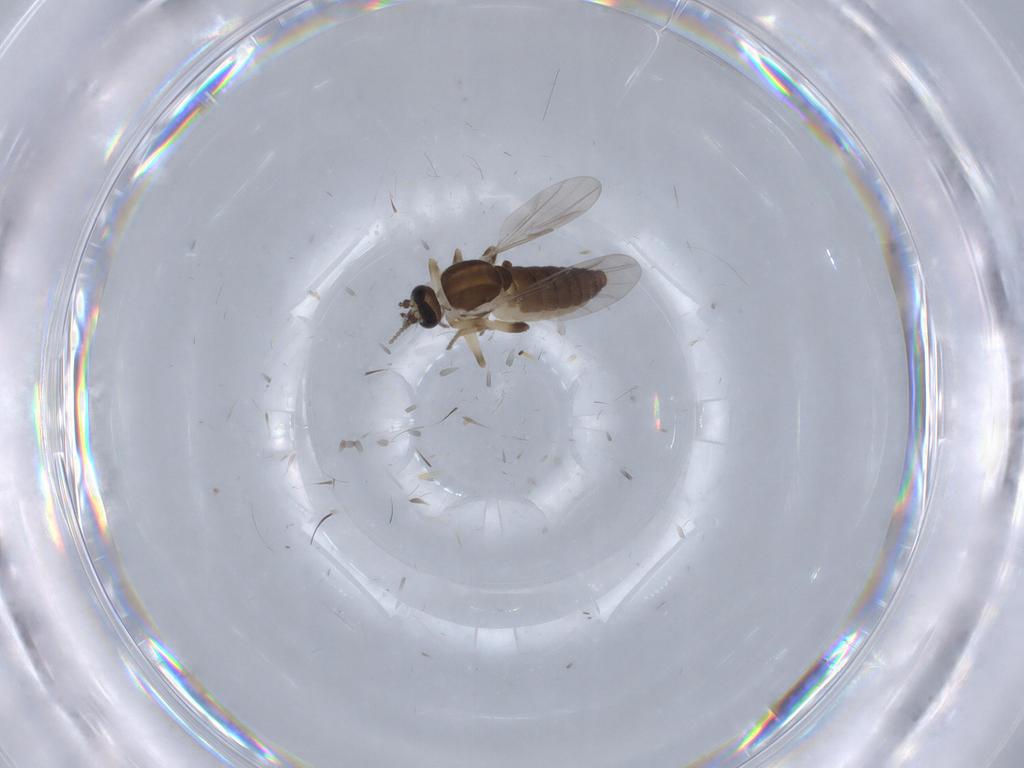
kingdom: Animalia
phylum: Arthropoda
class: Insecta
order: Diptera
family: Ceratopogonidae
